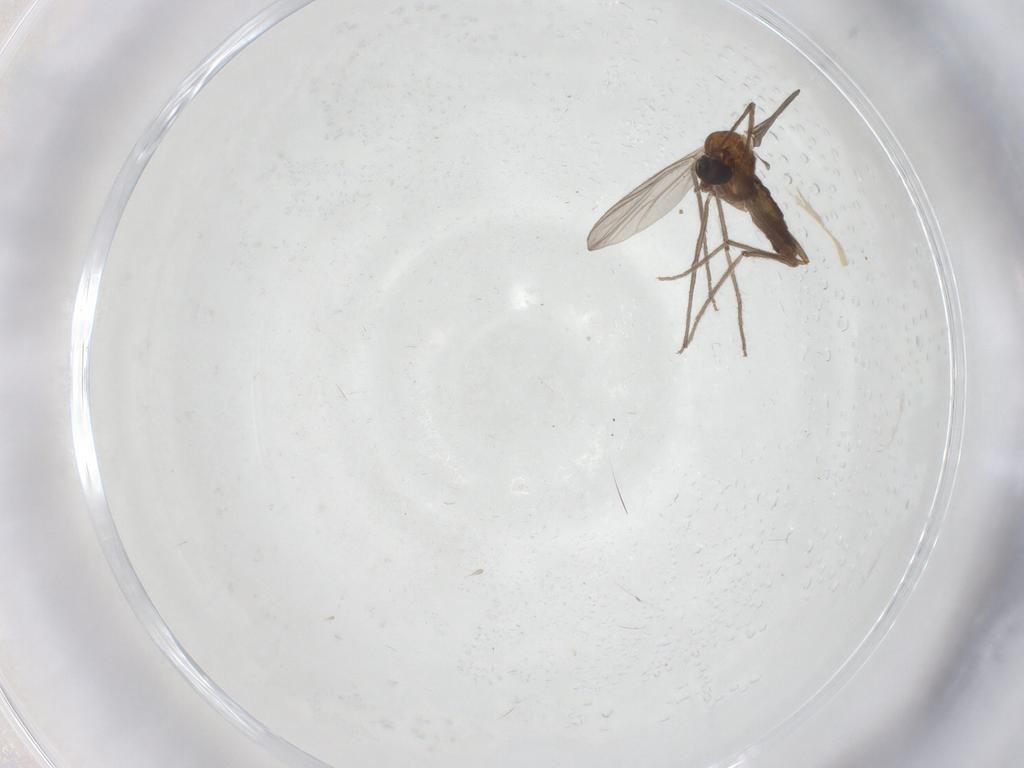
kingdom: Animalia
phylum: Arthropoda
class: Insecta
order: Diptera
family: Chironomidae
